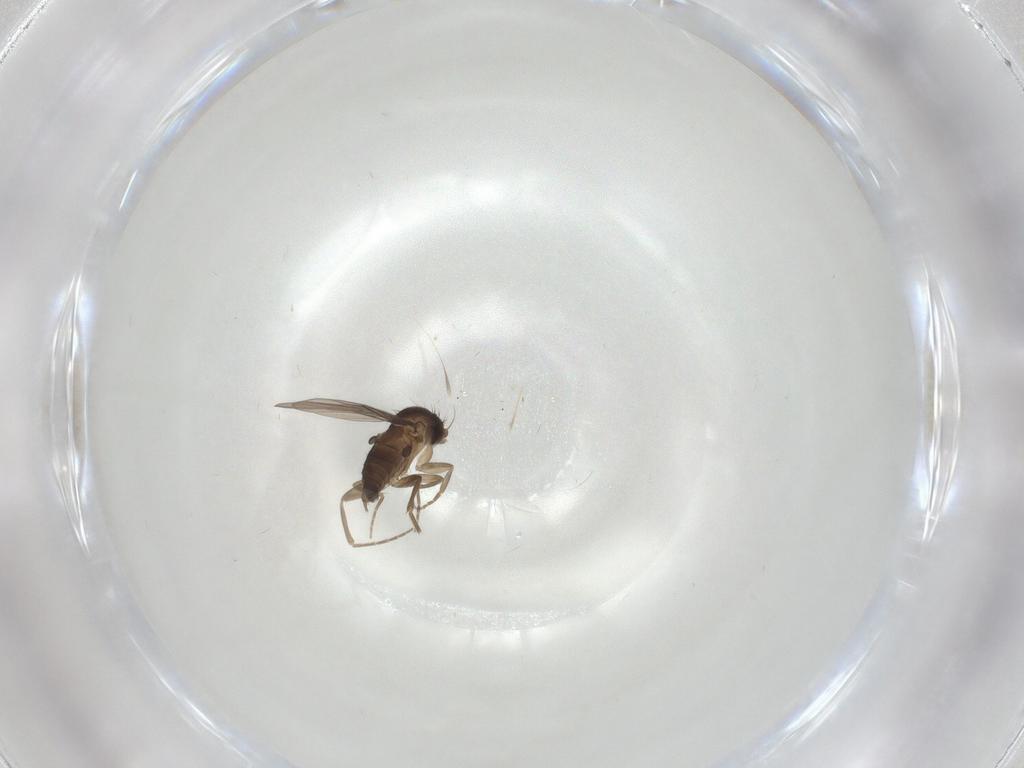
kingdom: Animalia
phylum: Arthropoda
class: Insecta
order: Diptera
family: Phoridae
